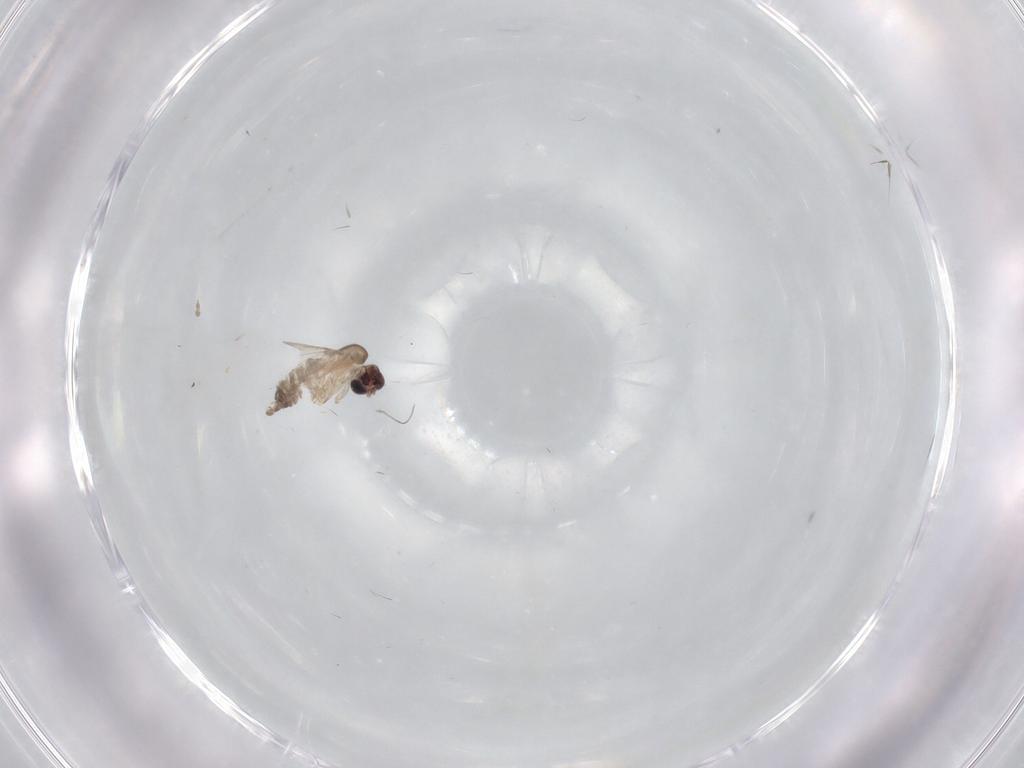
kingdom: Animalia
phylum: Arthropoda
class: Insecta
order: Diptera
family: Limoniidae
